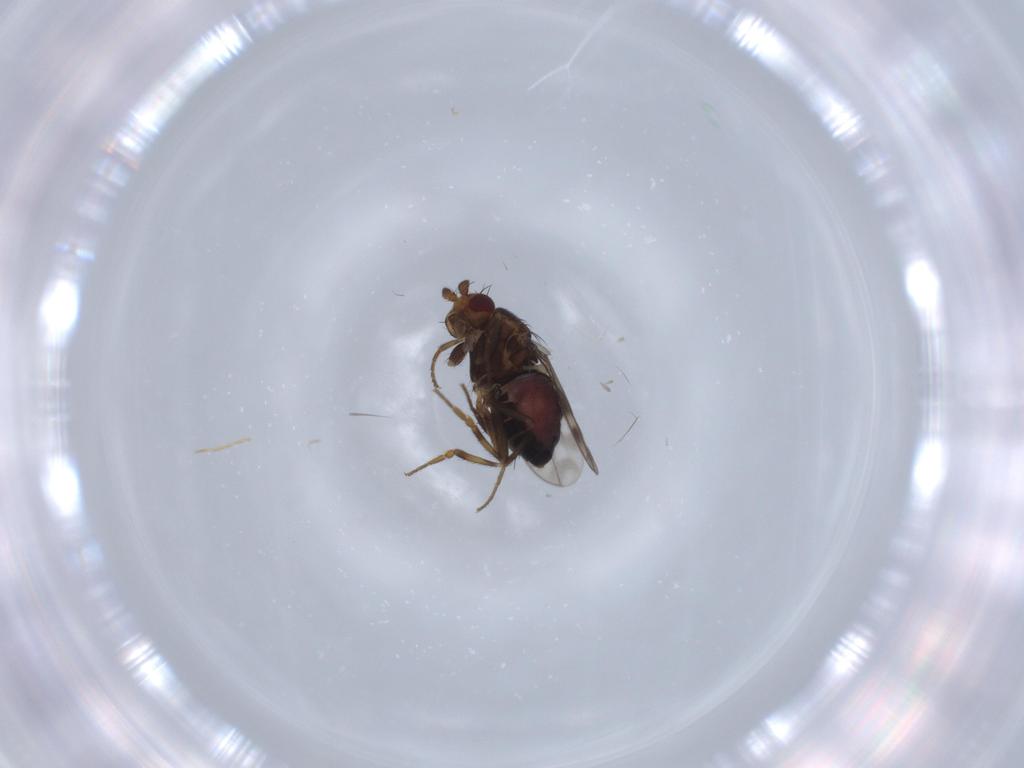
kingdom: Animalia
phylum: Arthropoda
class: Insecta
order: Diptera
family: Sphaeroceridae
